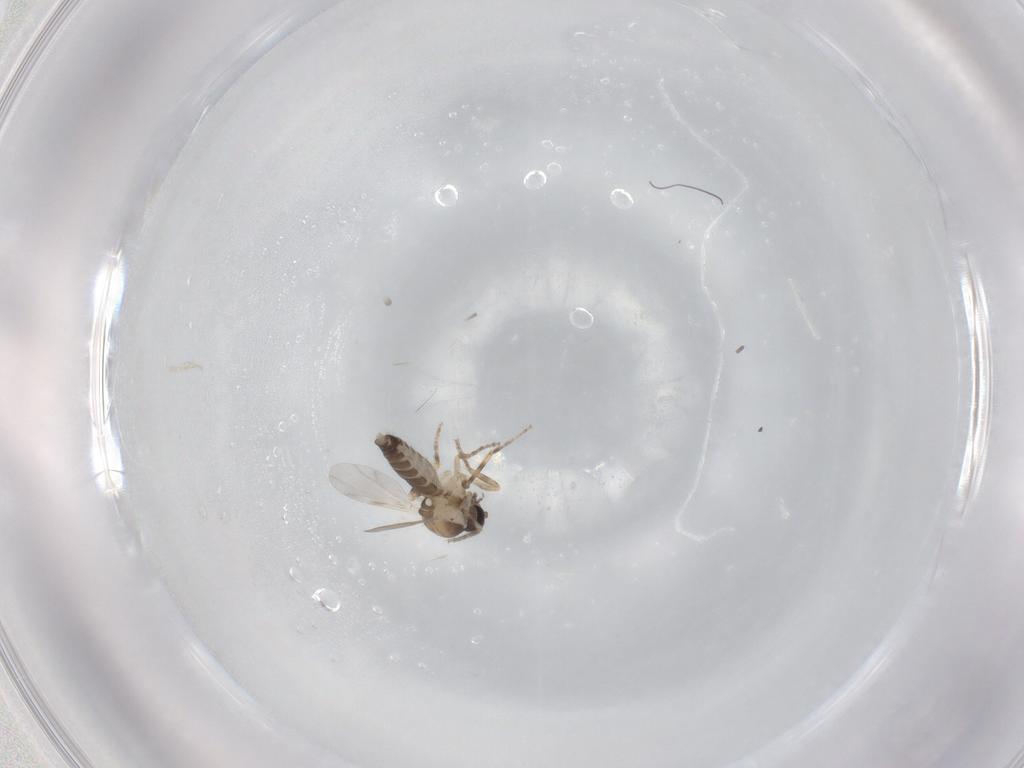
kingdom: Animalia
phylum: Arthropoda
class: Insecta
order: Diptera
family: Ceratopogonidae
